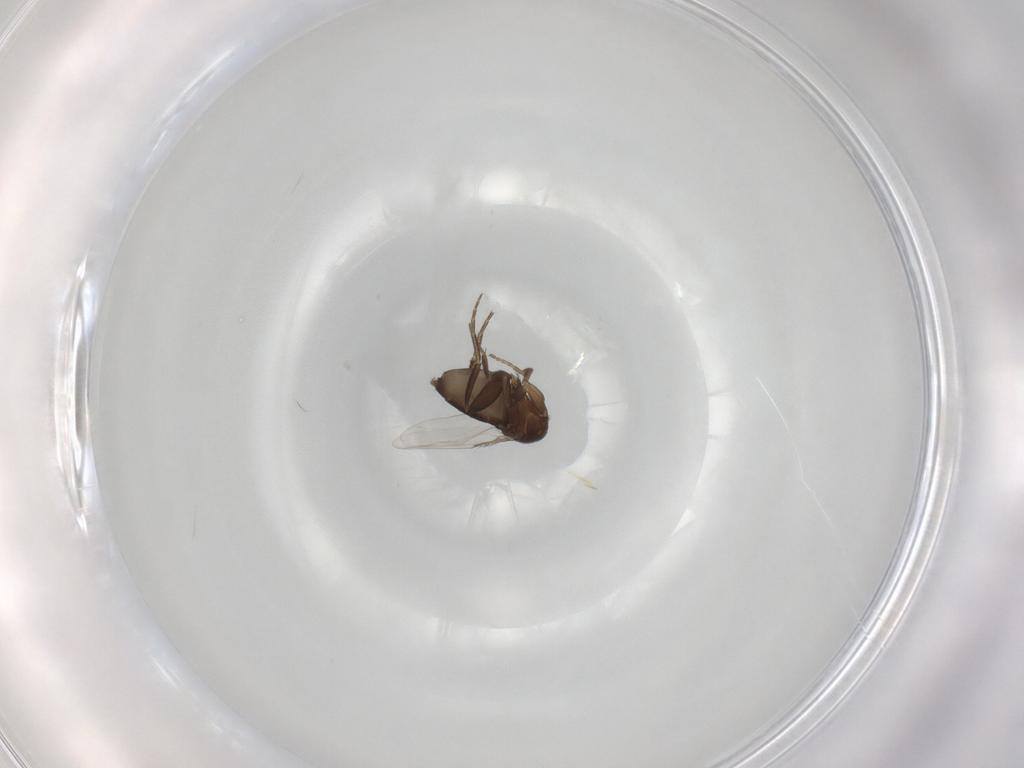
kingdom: Animalia
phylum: Arthropoda
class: Insecta
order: Diptera
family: Phoridae
